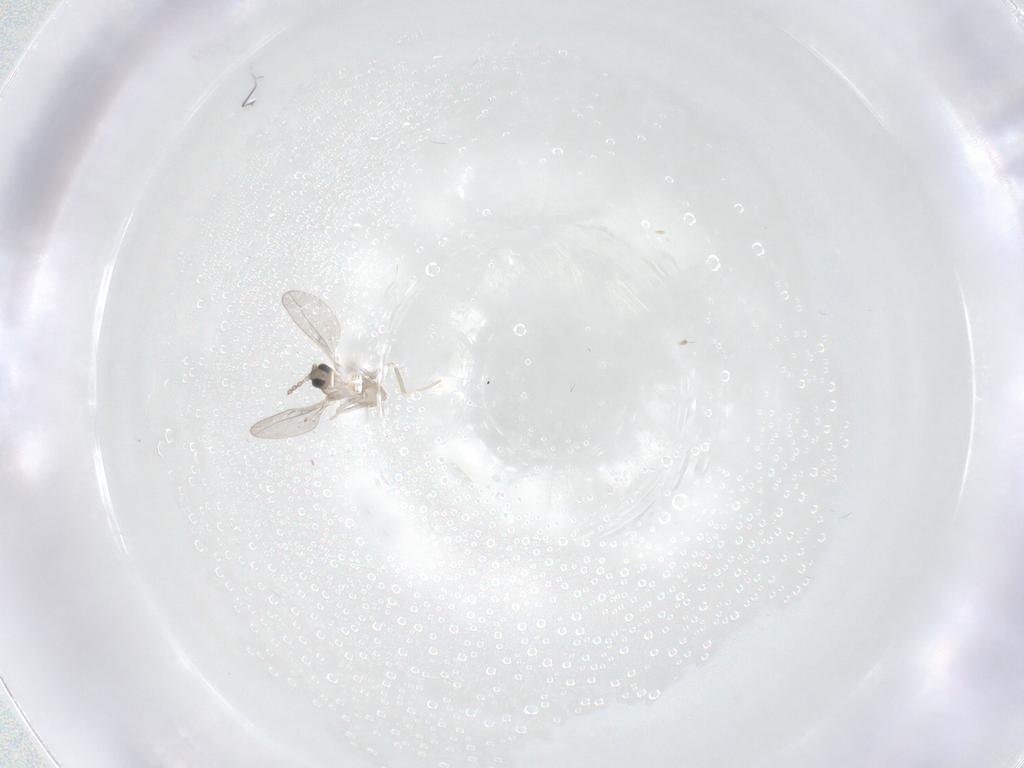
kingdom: Animalia
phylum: Arthropoda
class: Insecta
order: Diptera
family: Cecidomyiidae
